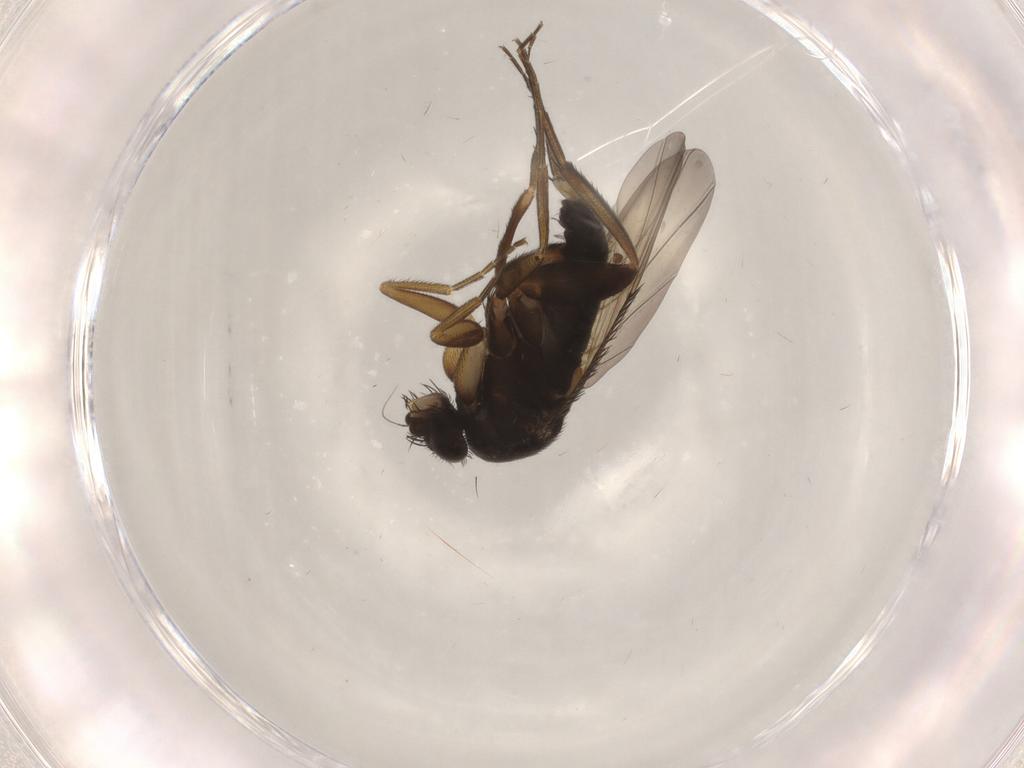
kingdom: Animalia
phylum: Arthropoda
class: Insecta
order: Diptera
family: Phoridae
